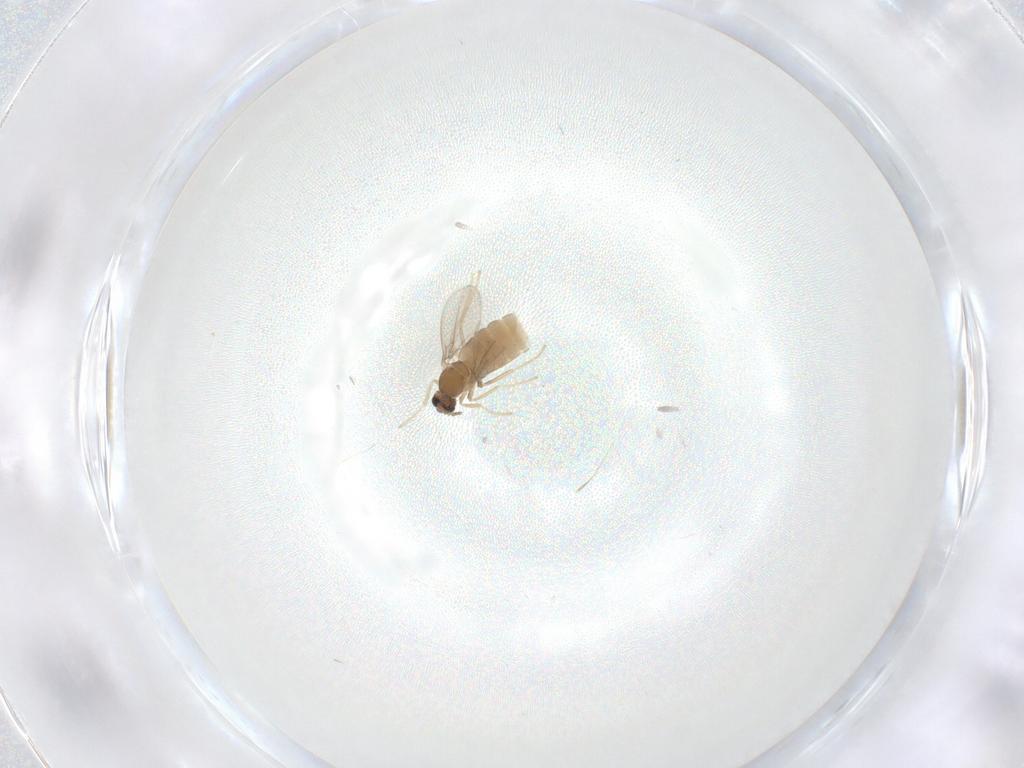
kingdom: Animalia
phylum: Arthropoda
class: Insecta
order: Diptera
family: Cecidomyiidae
